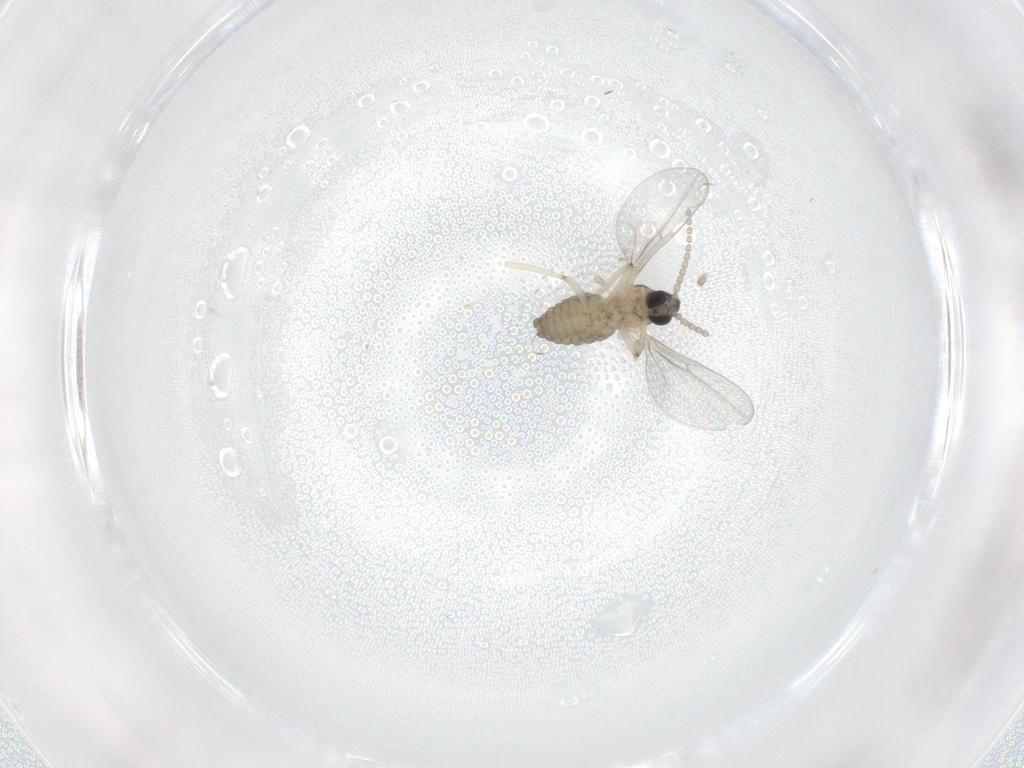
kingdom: Animalia
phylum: Arthropoda
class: Insecta
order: Diptera
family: Cecidomyiidae
